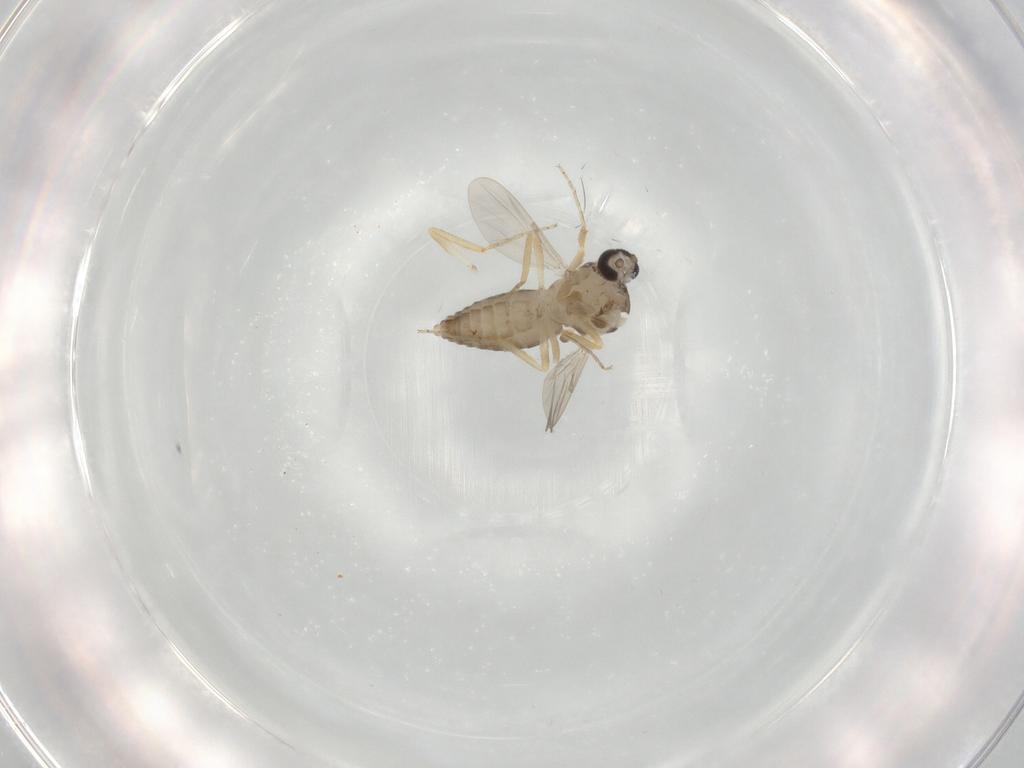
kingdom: Animalia
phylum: Arthropoda
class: Insecta
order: Diptera
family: Ceratopogonidae
